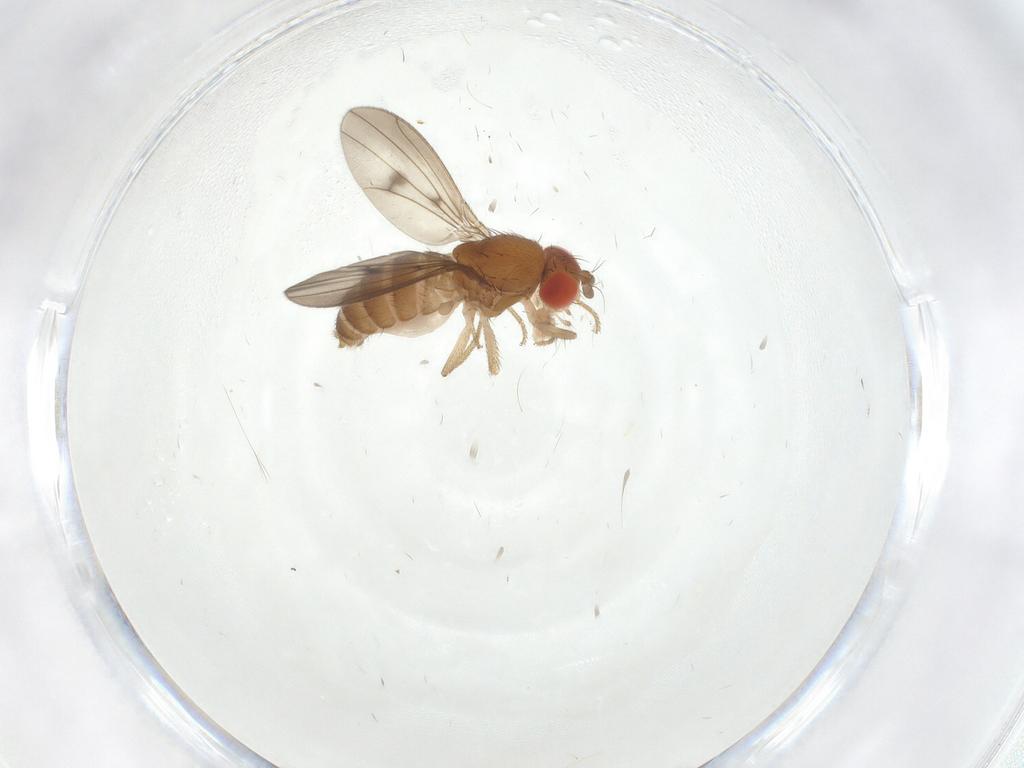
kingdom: Animalia
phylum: Arthropoda
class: Insecta
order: Diptera
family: Drosophilidae
